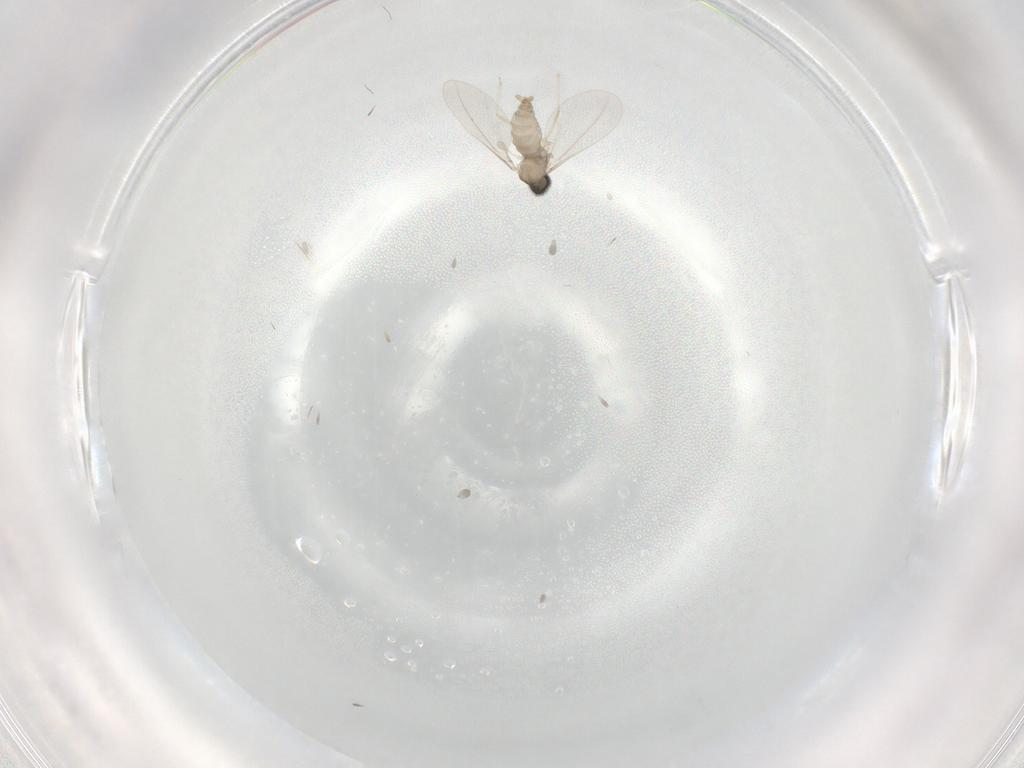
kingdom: Animalia
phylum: Arthropoda
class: Insecta
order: Diptera
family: Cecidomyiidae
